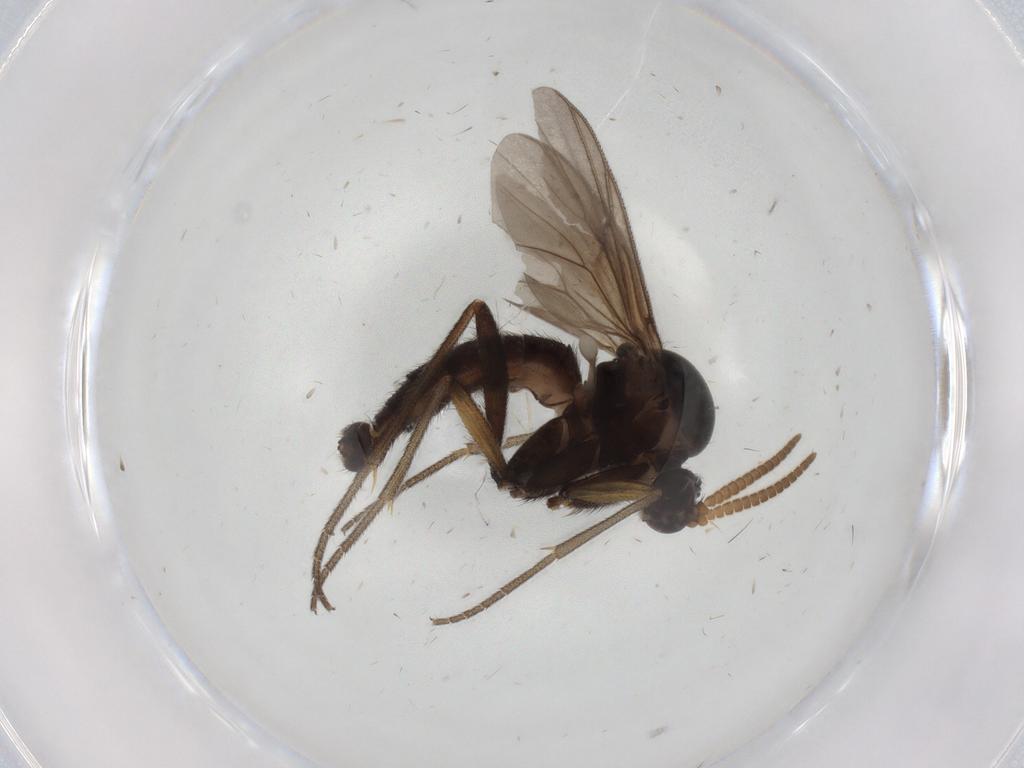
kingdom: Animalia
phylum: Arthropoda
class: Insecta
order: Diptera
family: Mycetophilidae
